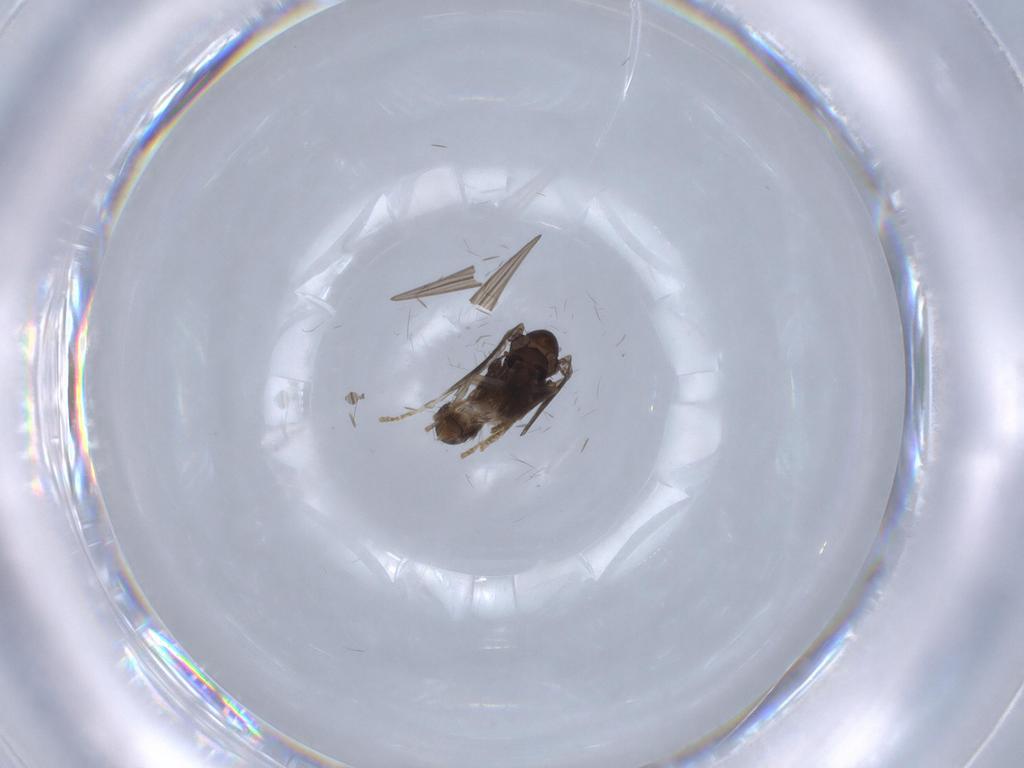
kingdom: Animalia
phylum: Arthropoda
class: Insecta
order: Diptera
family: Psychodidae
